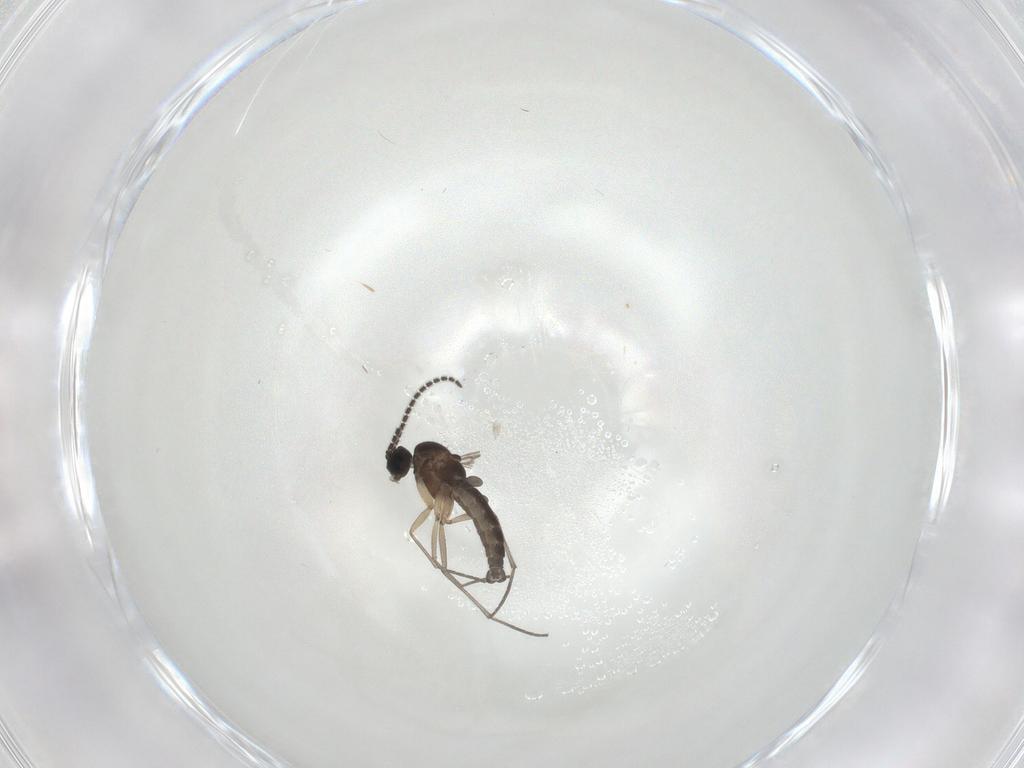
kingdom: Animalia
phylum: Arthropoda
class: Insecta
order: Diptera
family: Sciaridae
